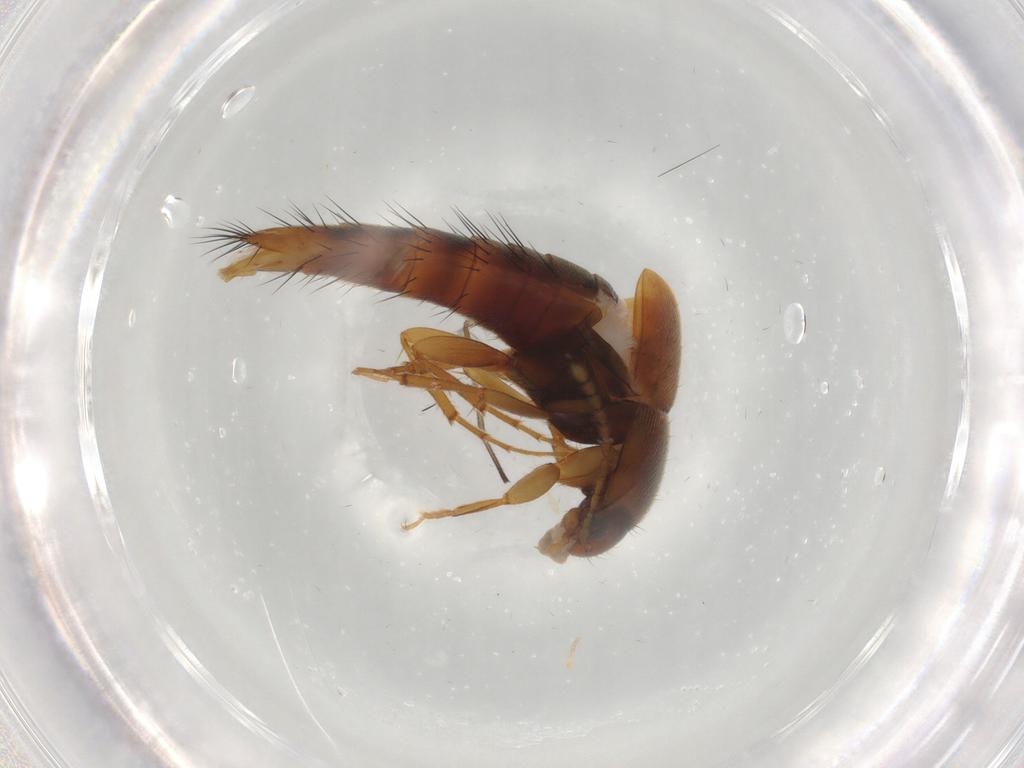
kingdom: Animalia
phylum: Arthropoda
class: Insecta
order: Coleoptera
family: Staphylinidae
